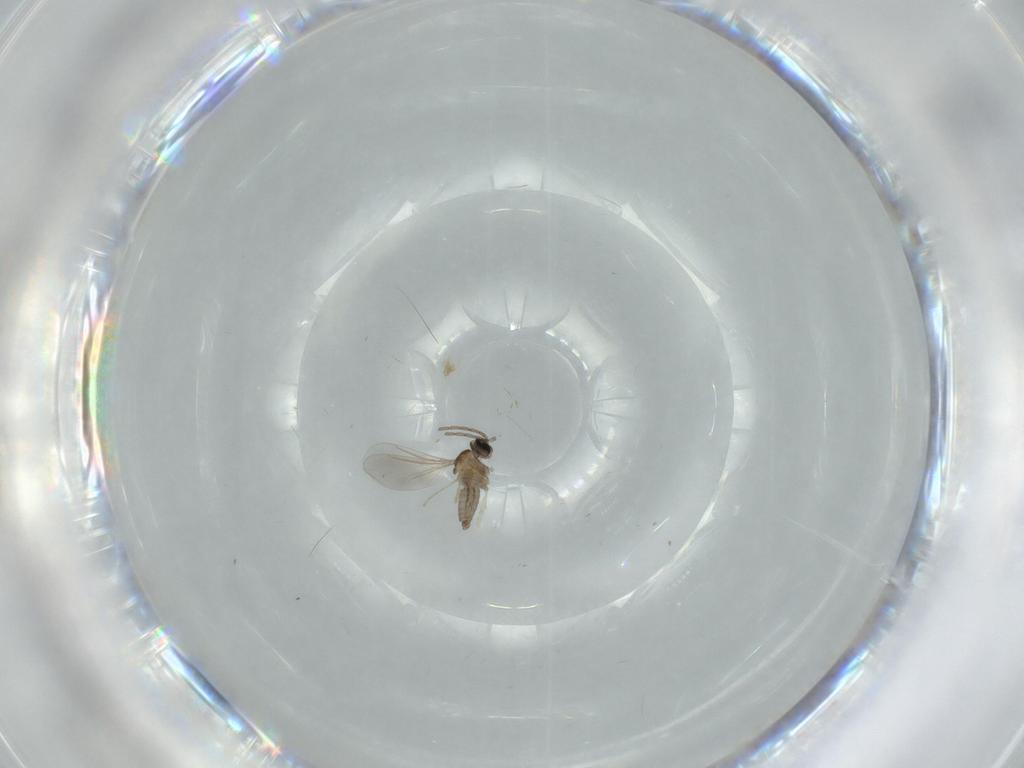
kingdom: Animalia
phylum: Arthropoda
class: Insecta
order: Diptera
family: Cecidomyiidae
